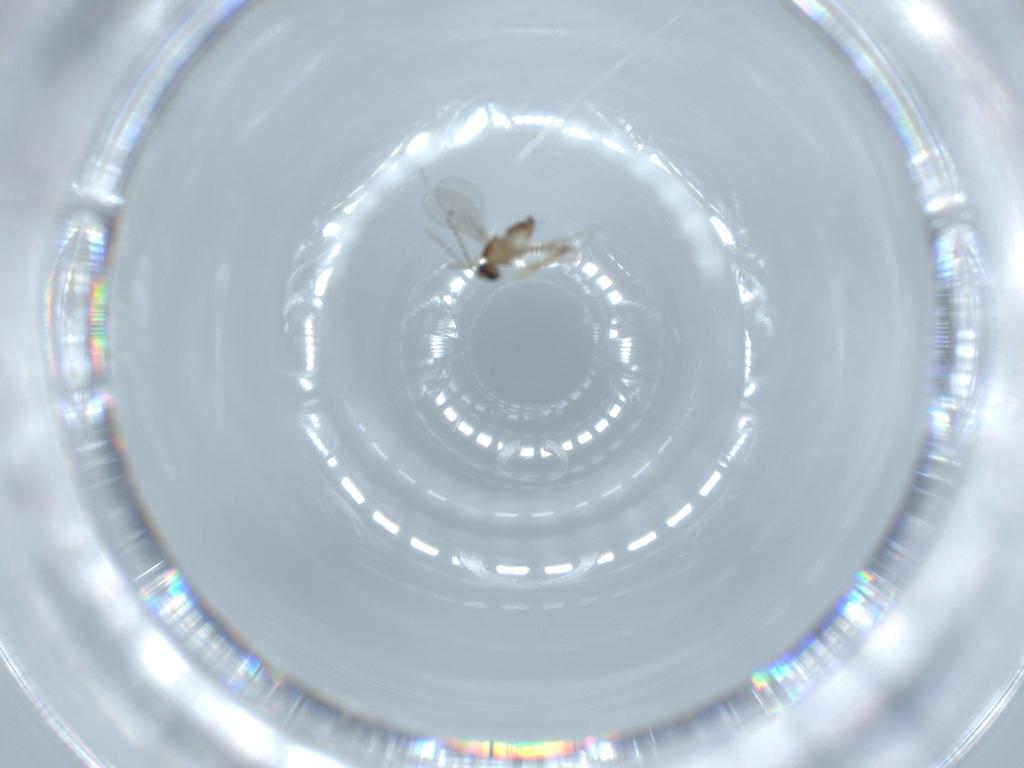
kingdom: Animalia
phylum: Arthropoda
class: Insecta
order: Diptera
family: Cecidomyiidae
